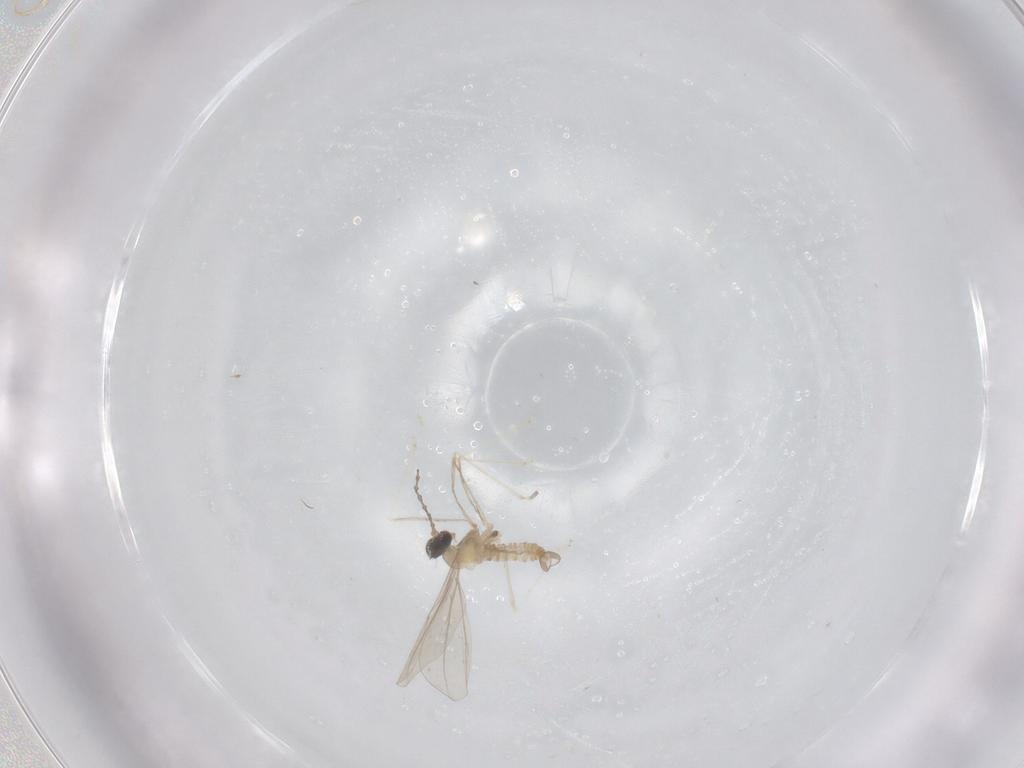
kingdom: Animalia
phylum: Arthropoda
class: Insecta
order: Diptera
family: Cecidomyiidae
